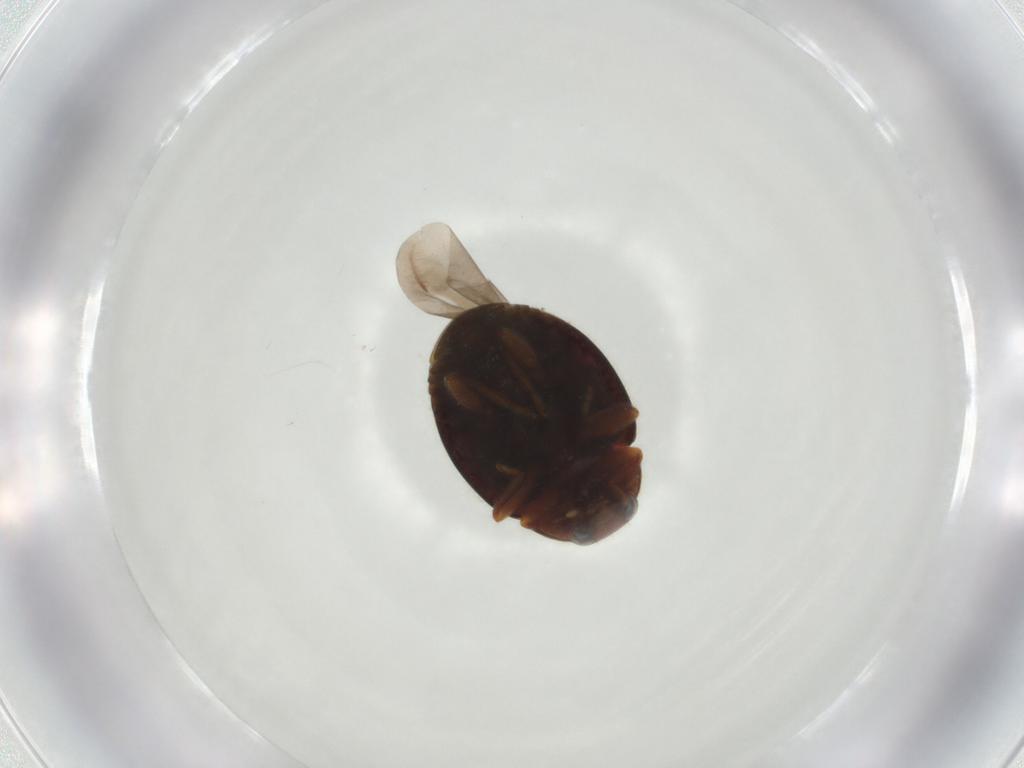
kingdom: Animalia
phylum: Arthropoda
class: Insecta
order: Coleoptera
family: Coccinellidae
